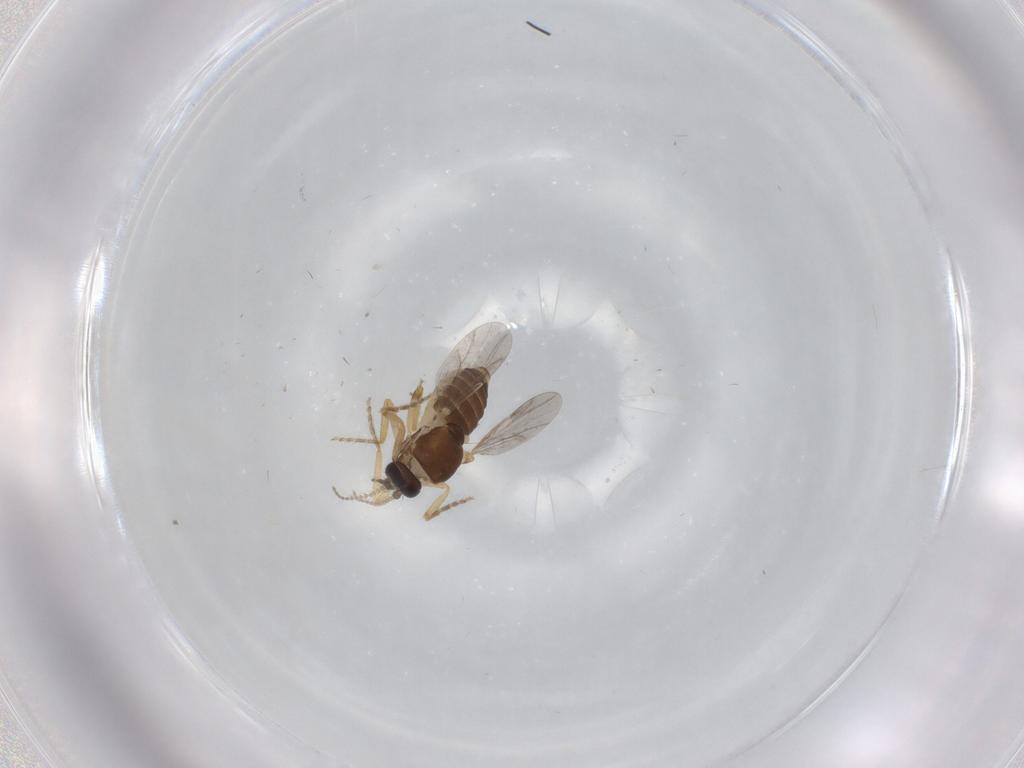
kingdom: Animalia
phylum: Arthropoda
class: Insecta
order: Diptera
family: Ceratopogonidae
